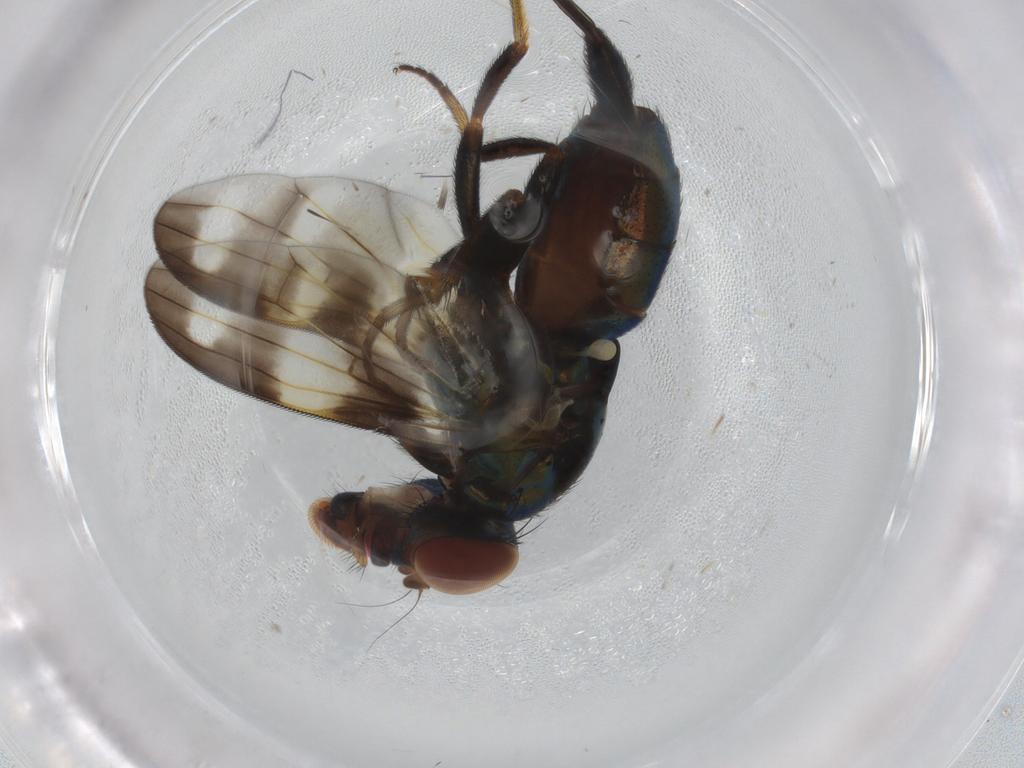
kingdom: Animalia
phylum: Arthropoda
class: Insecta
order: Diptera
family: Ulidiidae
